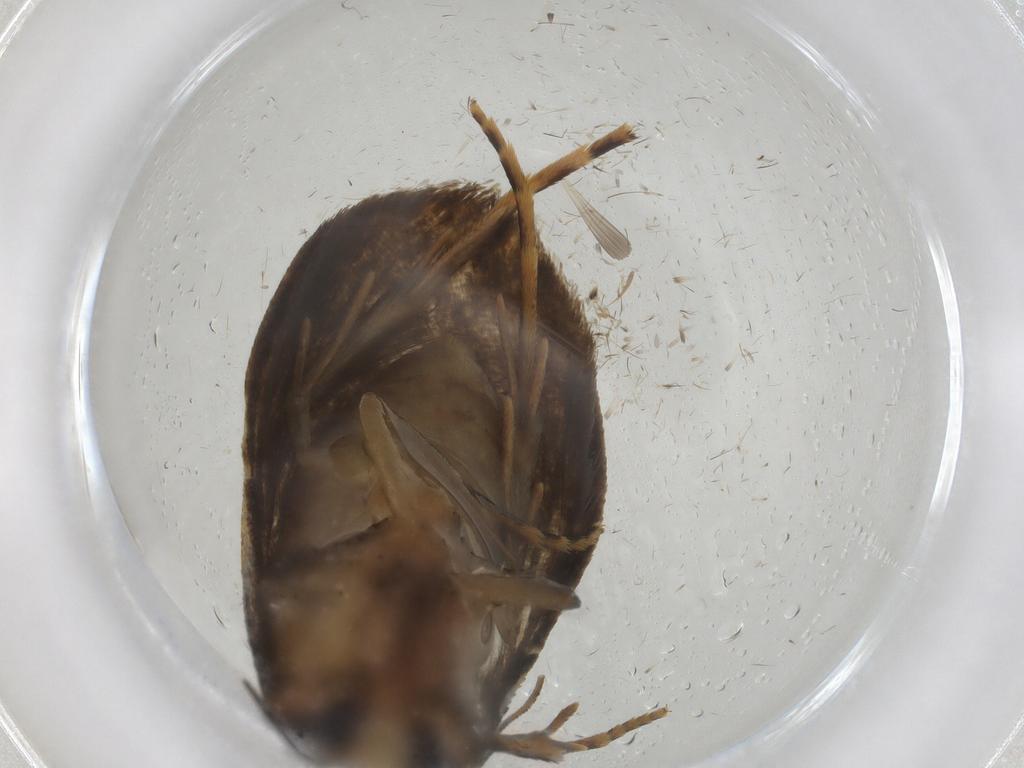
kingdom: Animalia
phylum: Arthropoda
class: Insecta
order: Lepidoptera
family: Tineidae
